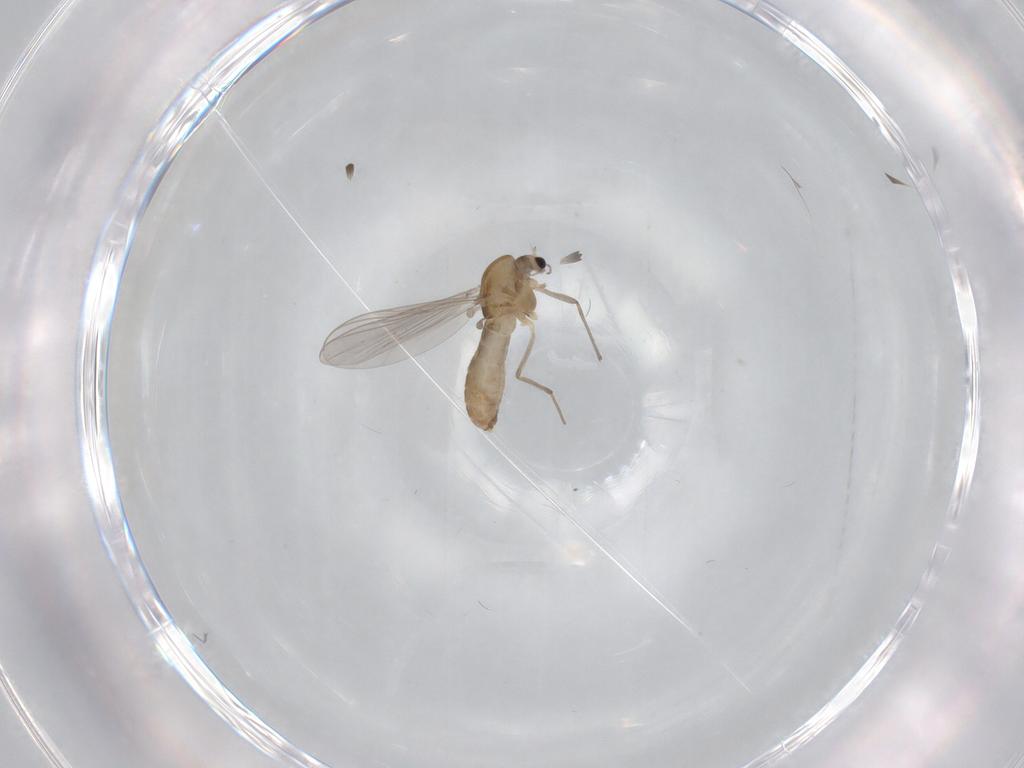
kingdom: Animalia
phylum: Arthropoda
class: Insecta
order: Diptera
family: Chironomidae
